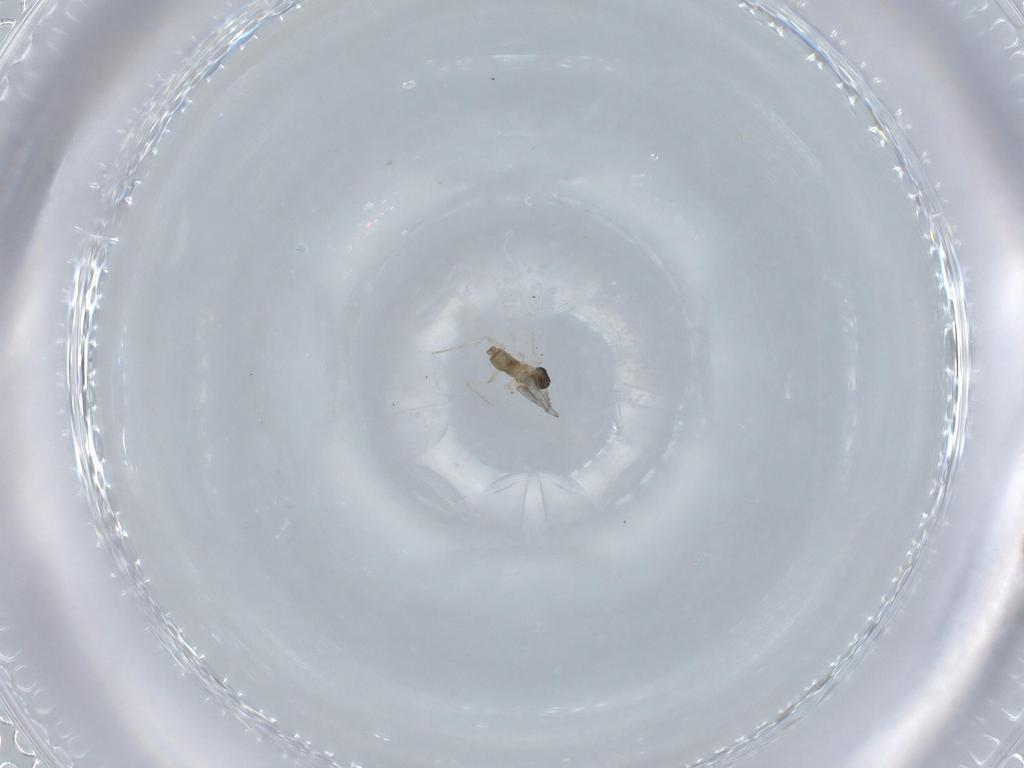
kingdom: Animalia
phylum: Arthropoda
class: Insecta
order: Diptera
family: Cecidomyiidae
